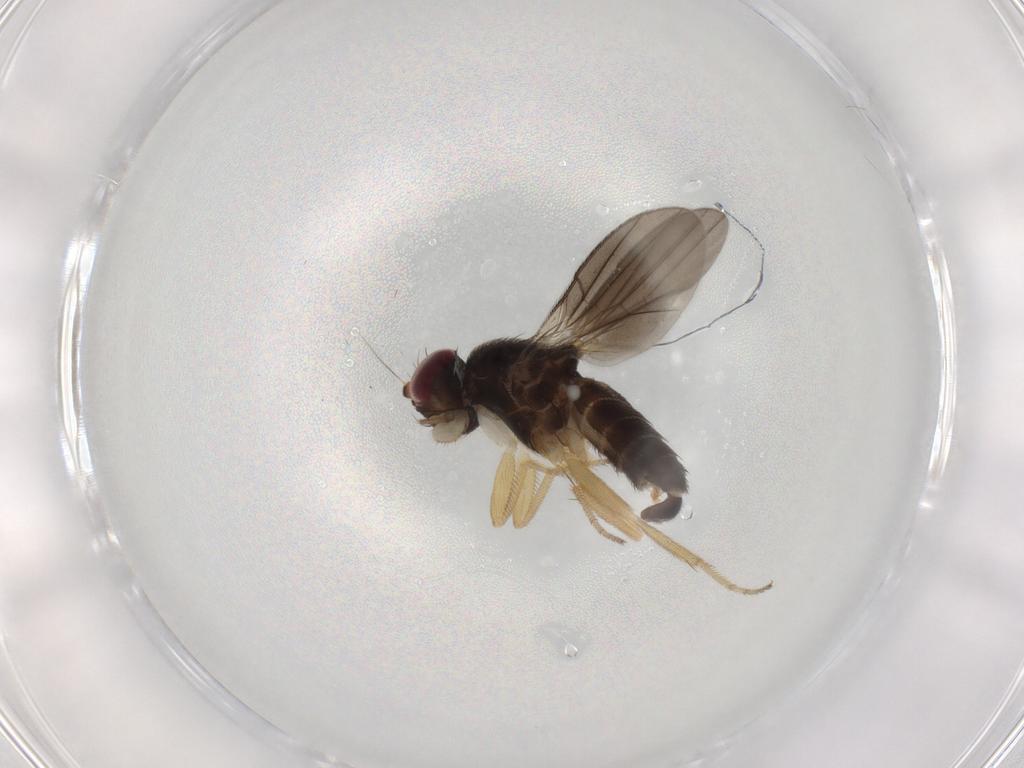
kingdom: Animalia
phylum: Arthropoda
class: Insecta
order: Diptera
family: Clusiidae
